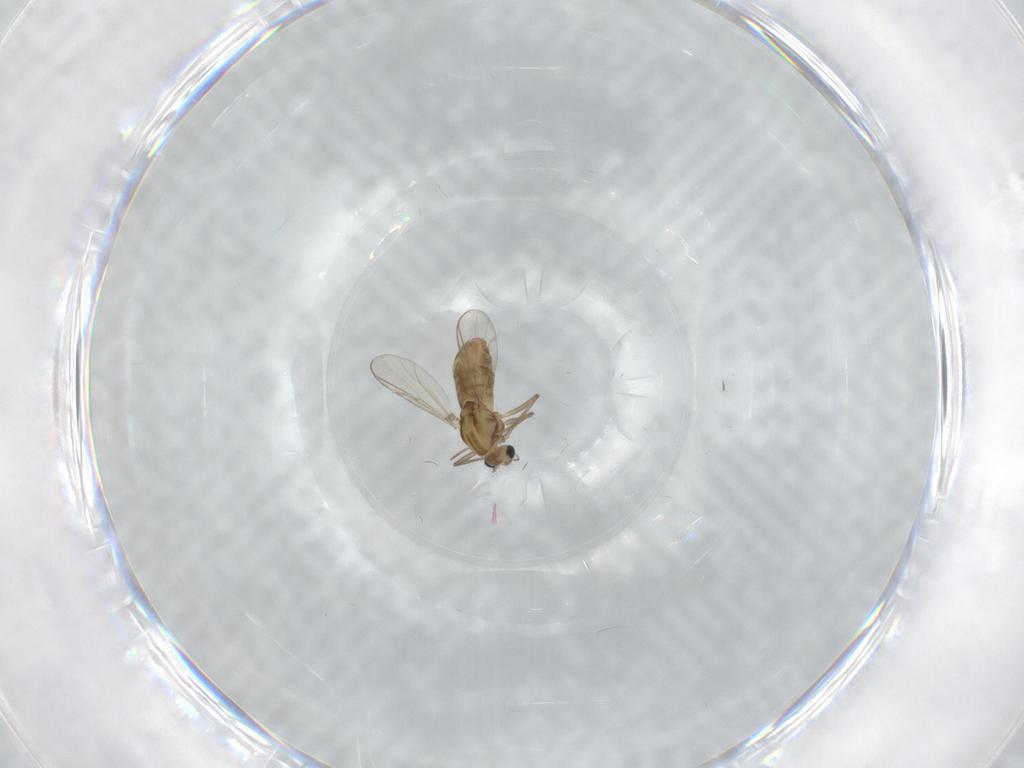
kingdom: Animalia
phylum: Arthropoda
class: Insecta
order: Diptera
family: Chironomidae
